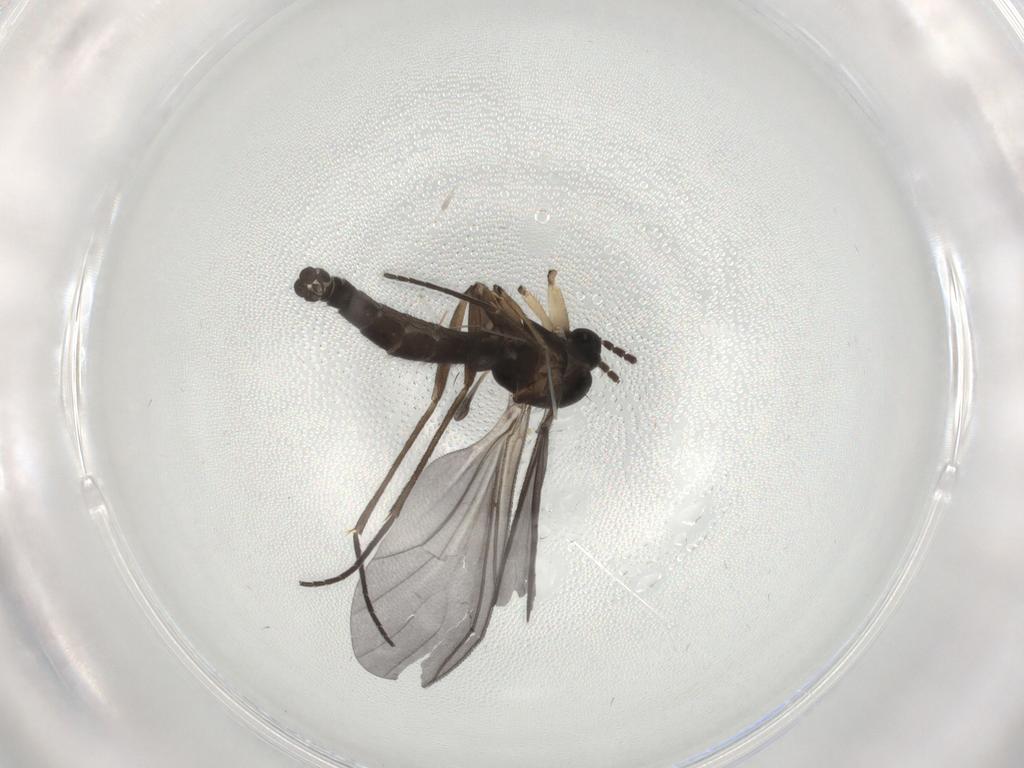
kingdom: Animalia
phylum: Arthropoda
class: Insecta
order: Diptera
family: Sciaridae
